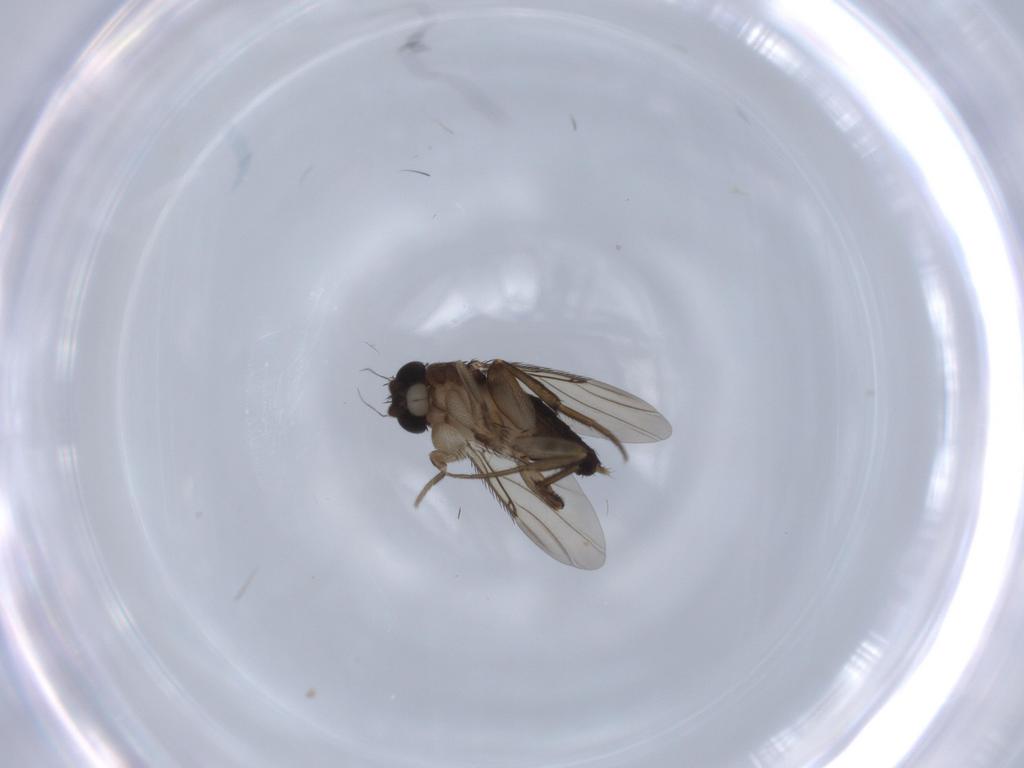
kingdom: Animalia
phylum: Arthropoda
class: Insecta
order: Diptera
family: Phoridae
